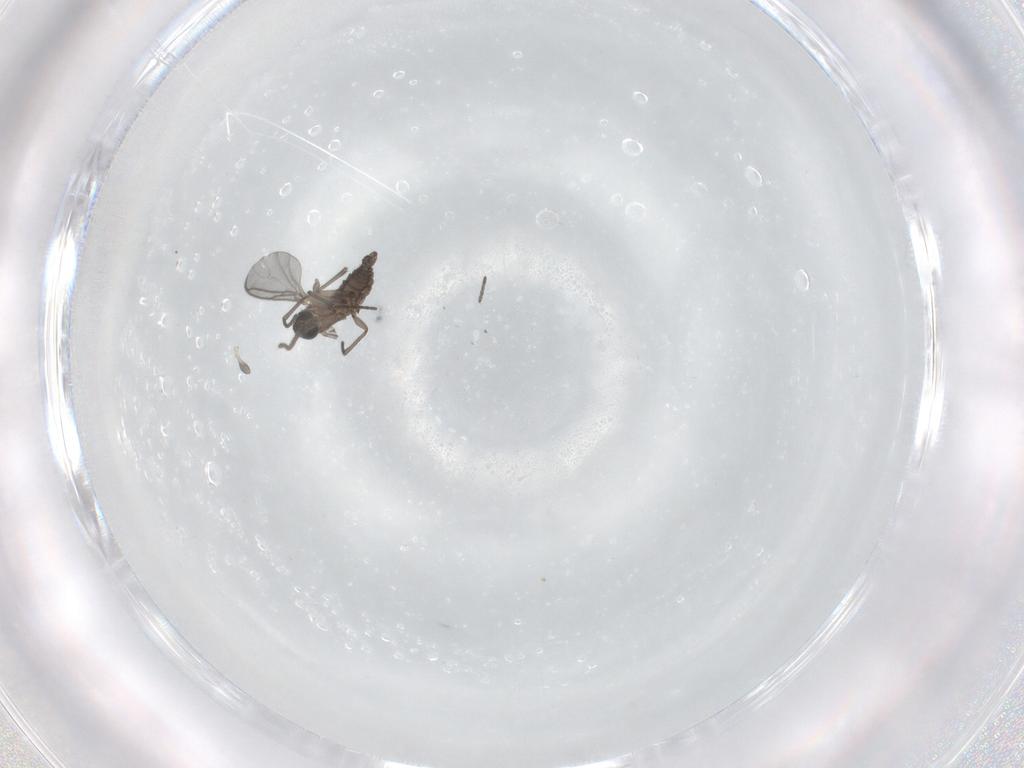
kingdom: Animalia
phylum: Arthropoda
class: Insecta
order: Diptera
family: Sciaridae
